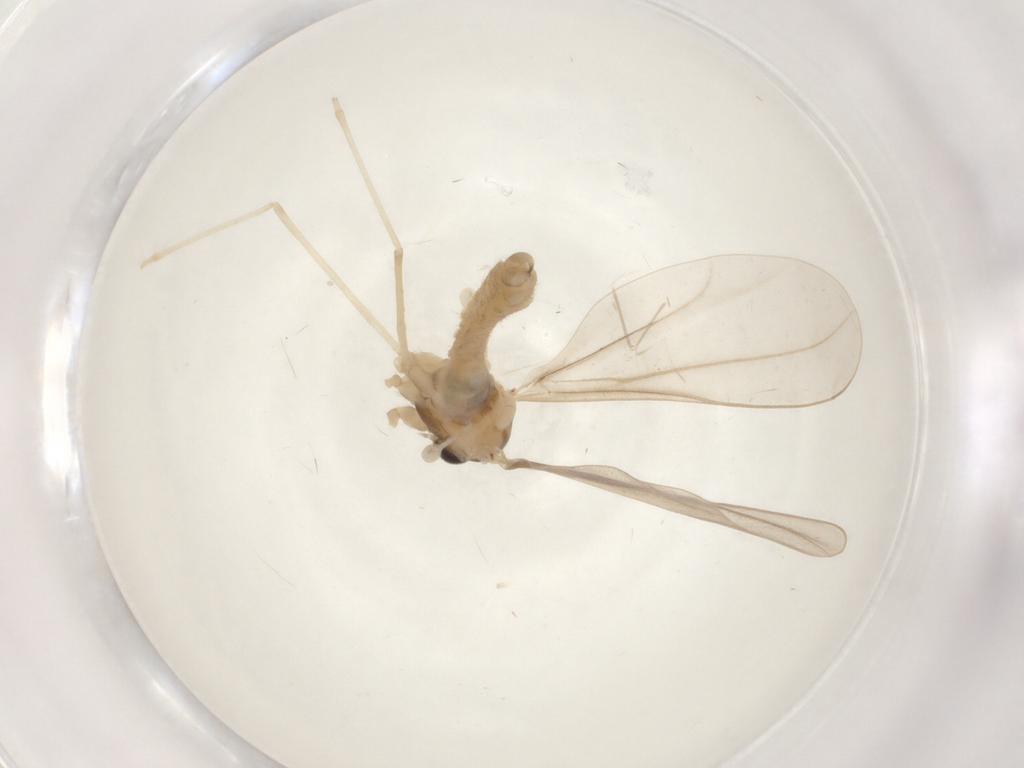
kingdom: Animalia
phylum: Arthropoda
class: Insecta
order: Diptera
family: Cecidomyiidae
